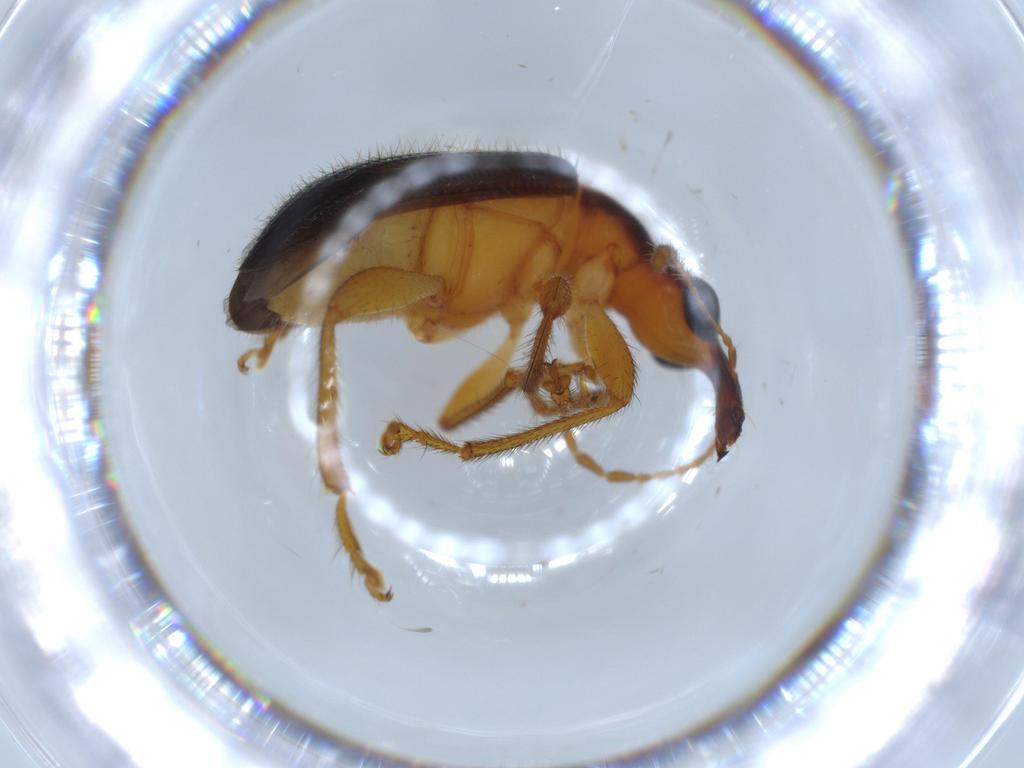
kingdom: Animalia
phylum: Arthropoda
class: Insecta
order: Coleoptera
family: Attelabidae
